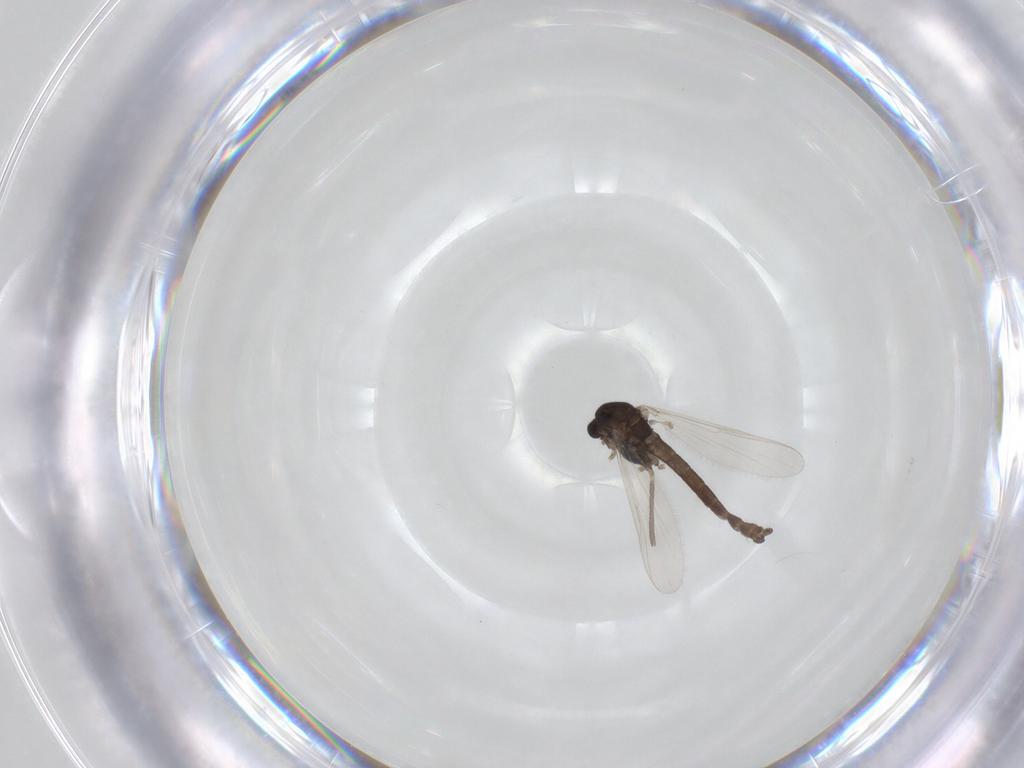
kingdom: Animalia
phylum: Arthropoda
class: Insecta
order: Diptera
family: Chironomidae
